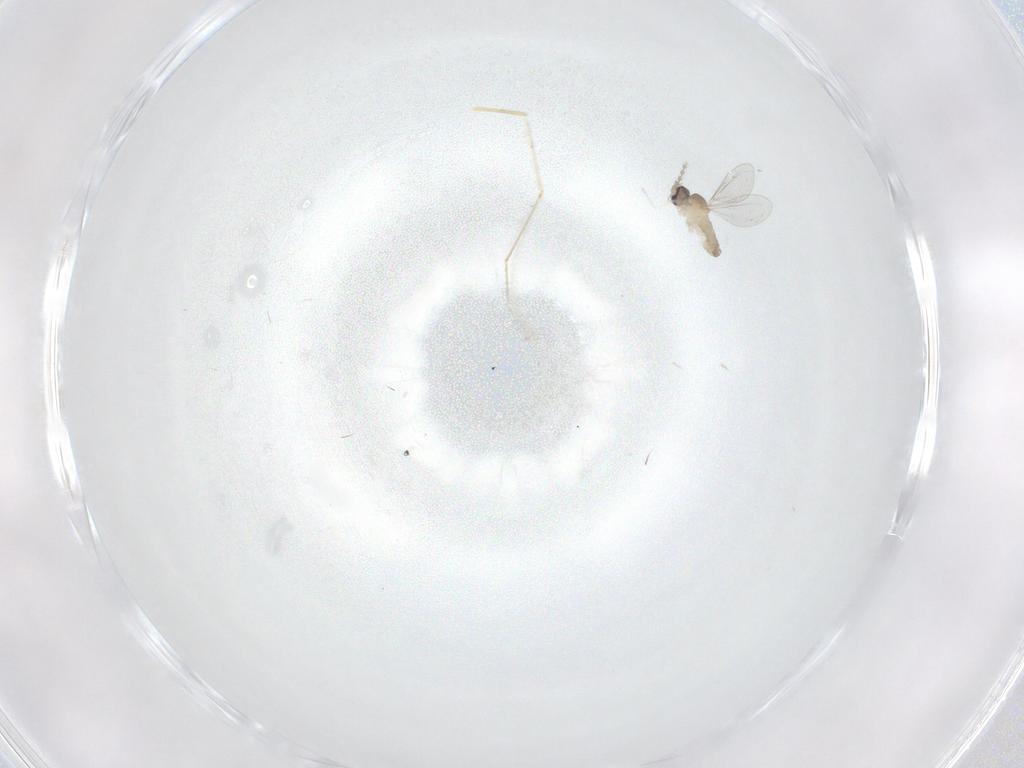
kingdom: Animalia
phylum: Arthropoda
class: Insecta
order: Diptera
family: Cecidomyiidae
